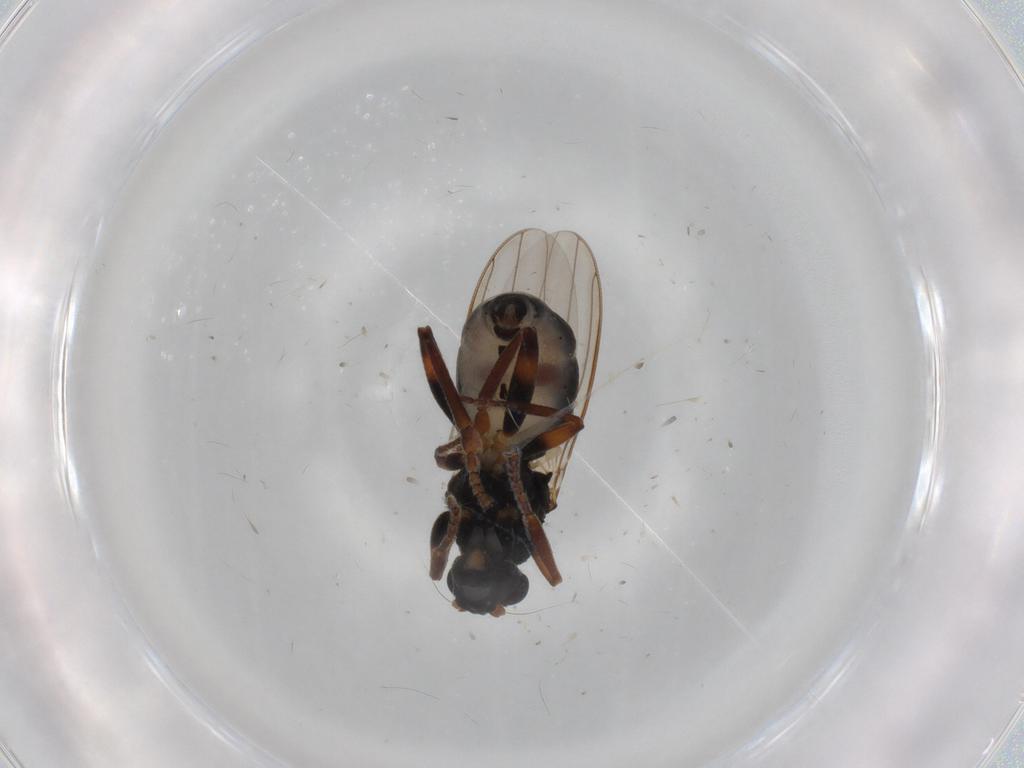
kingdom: Animalia
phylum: Arthropoda
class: Insecta
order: Diptera
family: Sphaeroceridae
